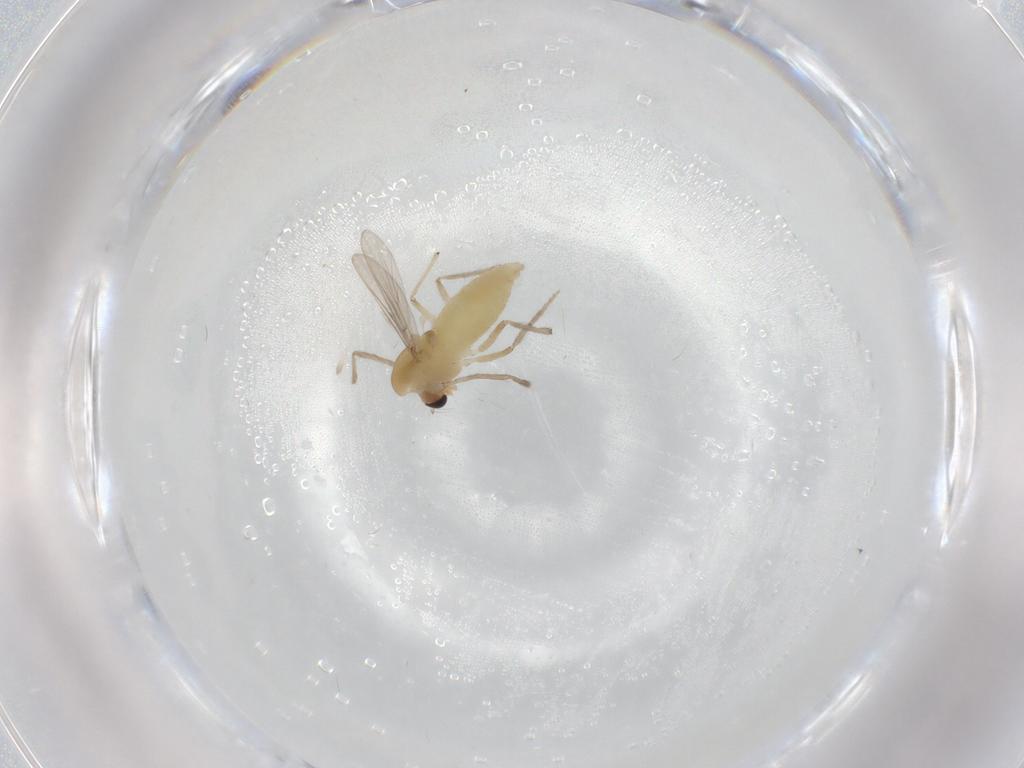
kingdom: Animalia
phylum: Arthropoda
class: Insecta
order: Diptera
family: Chironomidae
